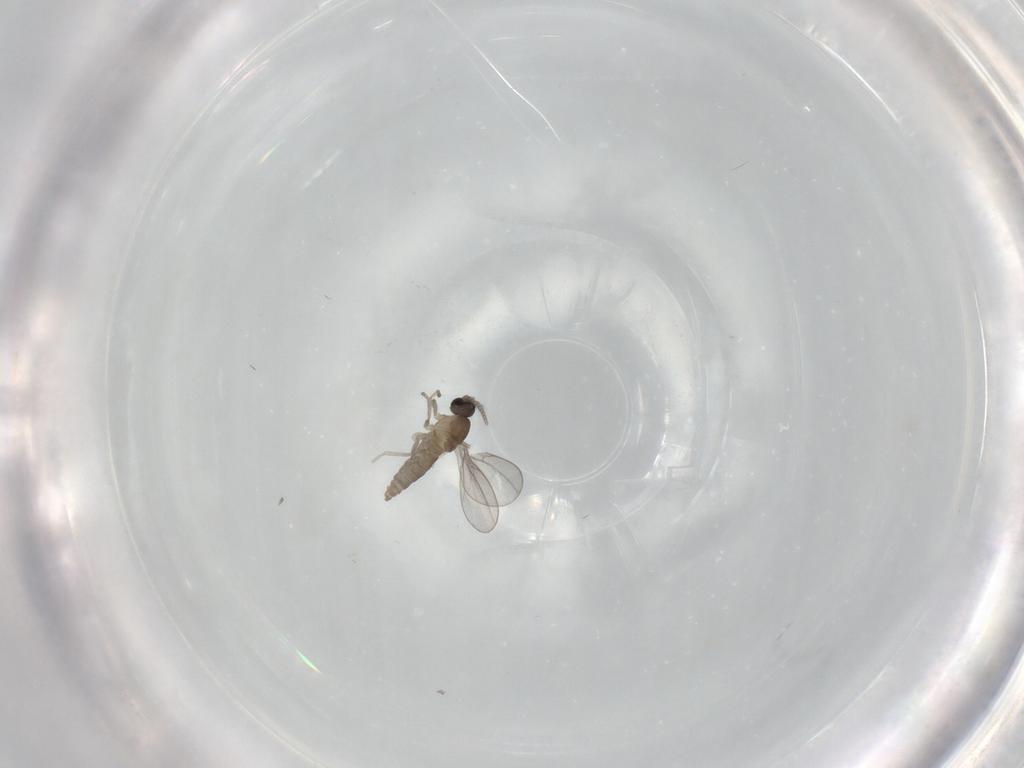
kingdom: Animalia
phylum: Arthropoda
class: Insecta
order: Diptera
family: Cecidomyiidae
